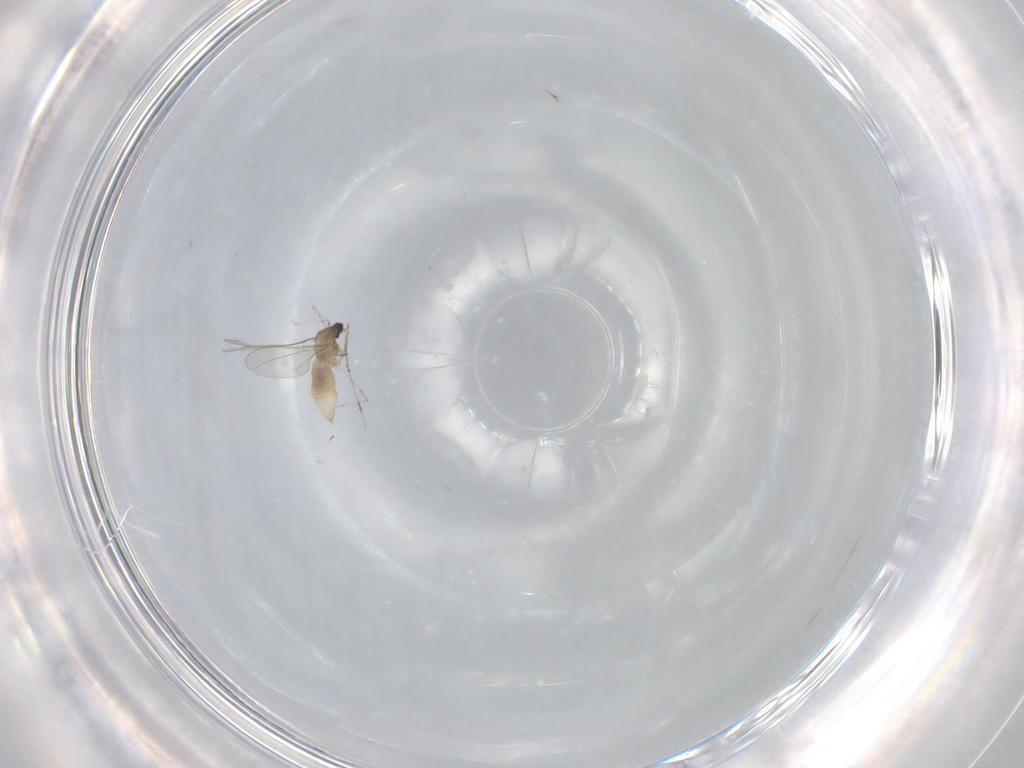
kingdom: Animalia
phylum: Arthropoda
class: Insecta
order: Diptera
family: Cecidomyiidae
